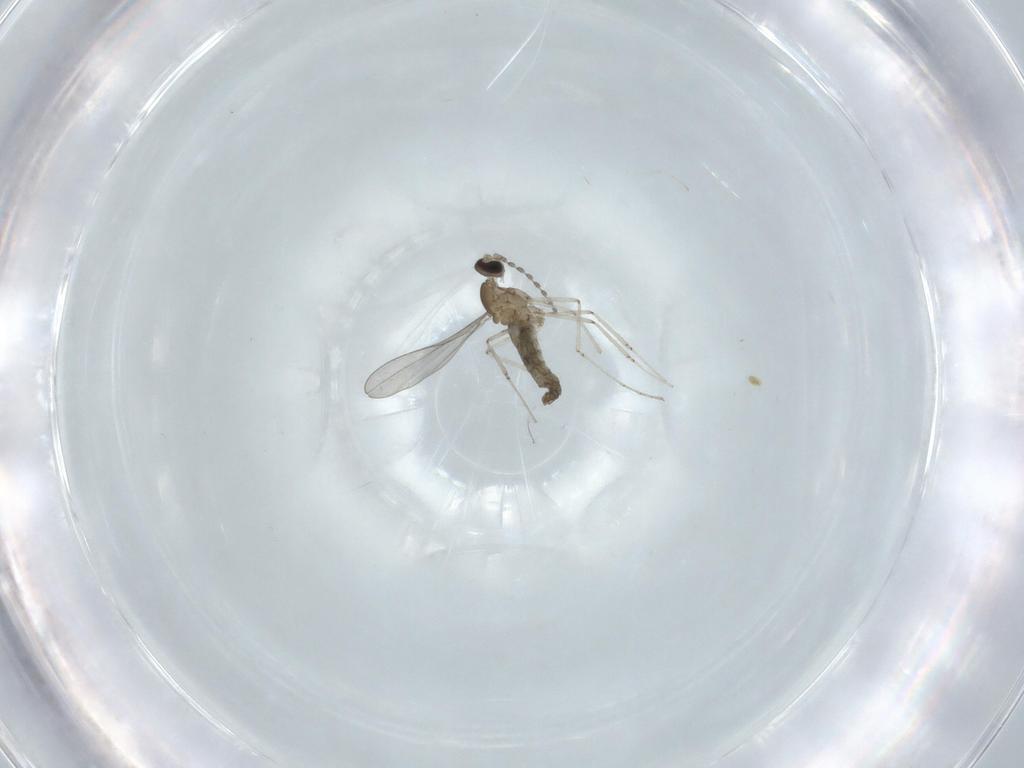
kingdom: Animalia
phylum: Arthropoda
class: Insecta
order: Diptera
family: Cecidomyiidae
